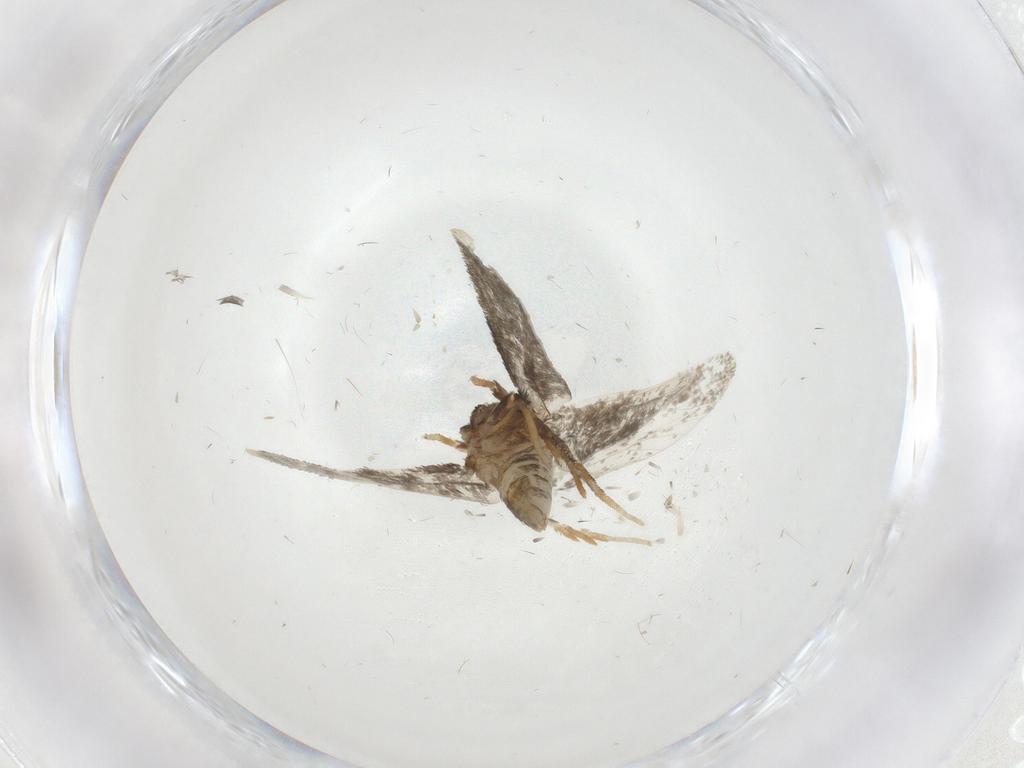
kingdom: Animalia
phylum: Arthropoda
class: Insecta
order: Lepidoptera
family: Psychidae
